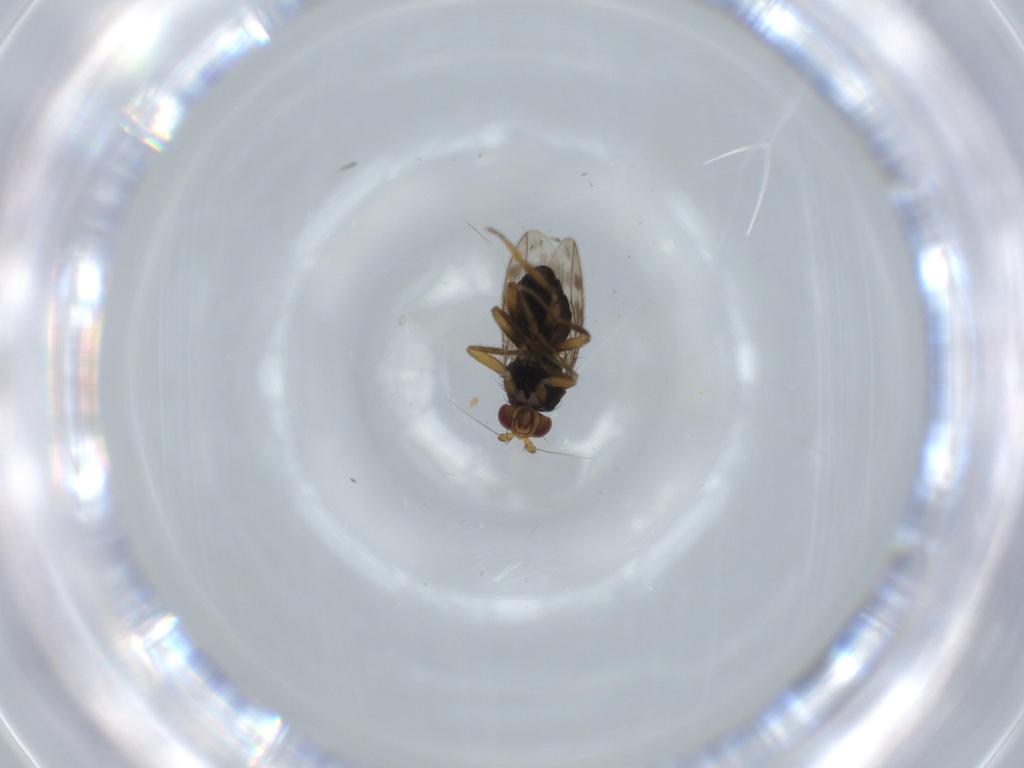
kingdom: Animalia
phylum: Arthropoda
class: Insecta
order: Diptera
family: Sphaeroceridae
